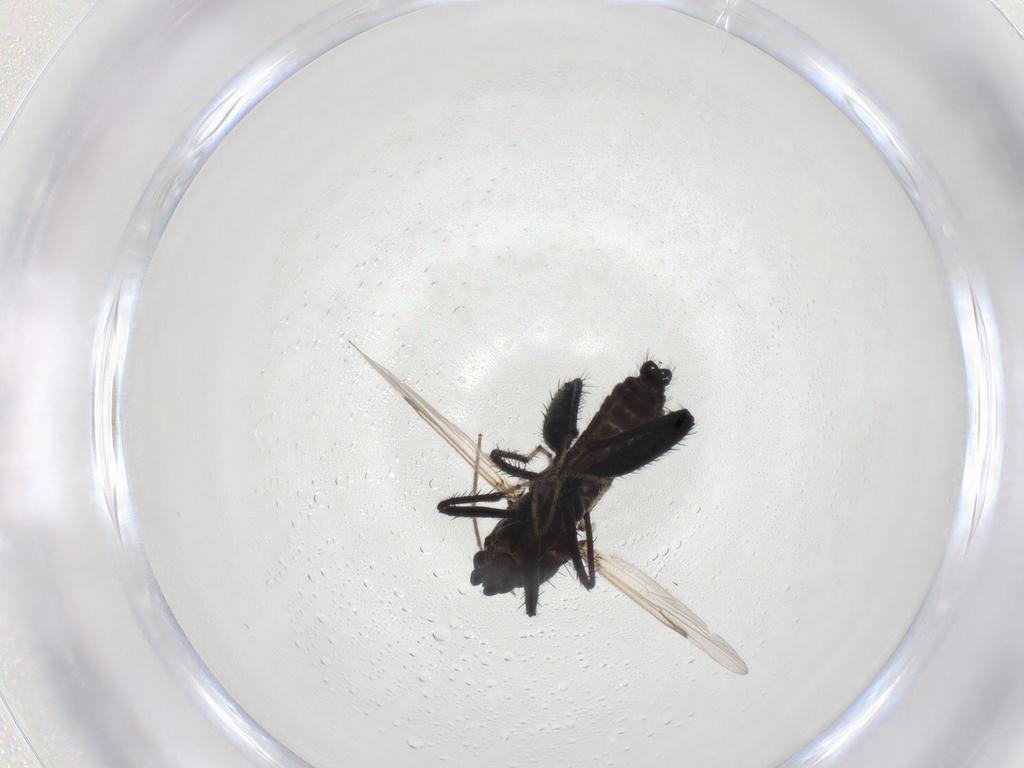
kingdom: Animalia
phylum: Arthropoda
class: Insecta
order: Diptera
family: Ceratopogonidae
